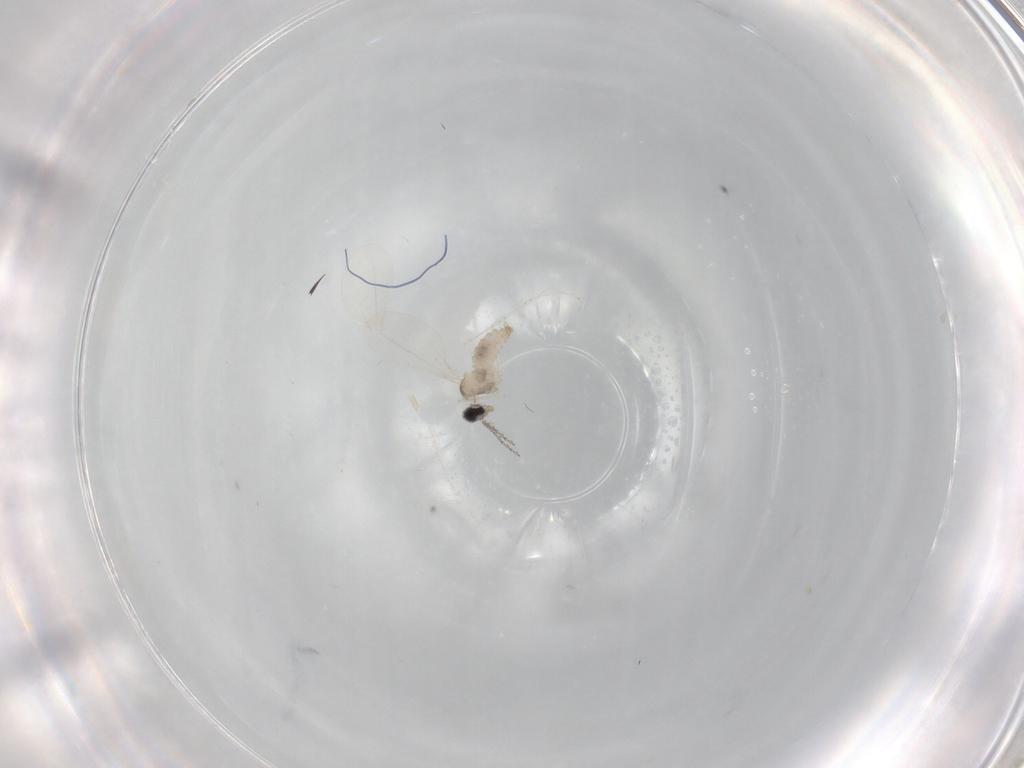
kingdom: Animalia
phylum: Arthropoda
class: Insecta
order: Diptera
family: Cecidomyiidae
